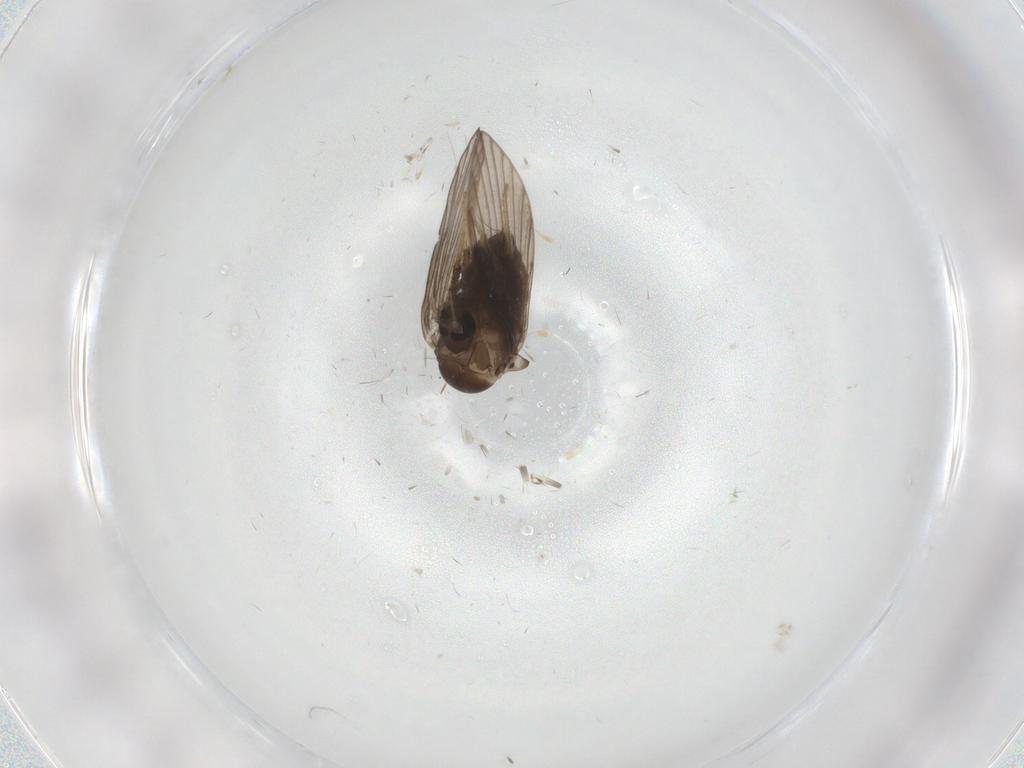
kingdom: Animalia
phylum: Arthropoda
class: Insecta
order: Diptera
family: Psychodidae
